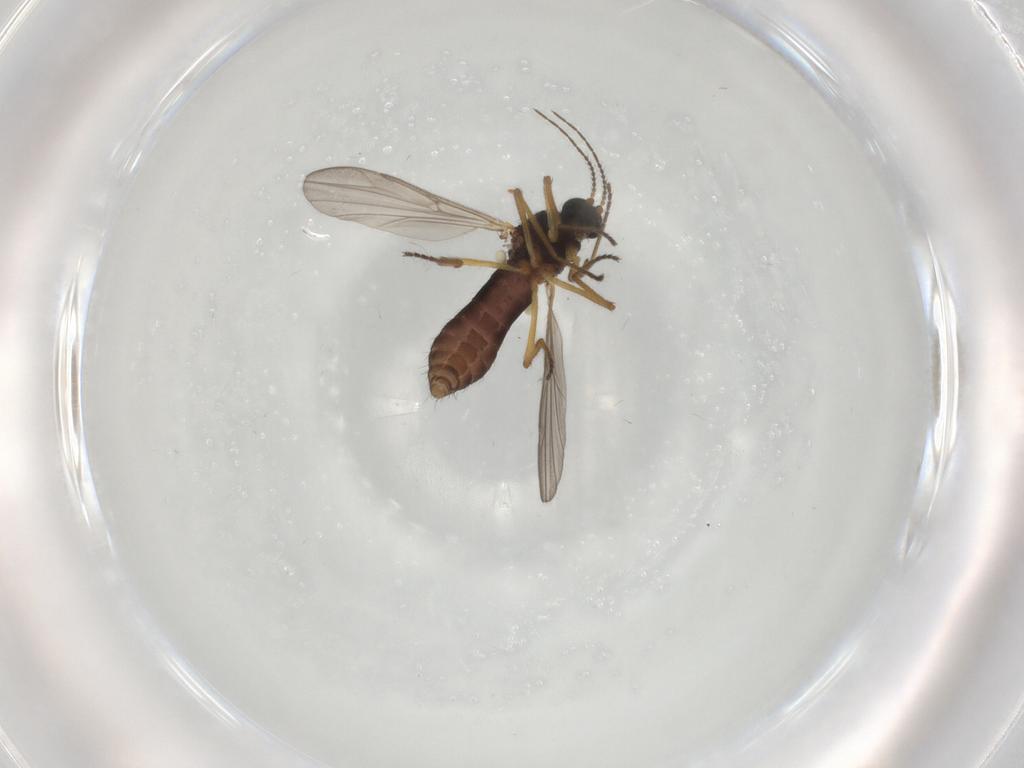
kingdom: Animalia
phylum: Arthropoda
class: Insecta
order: Diptera
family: Ceratopogonidae
